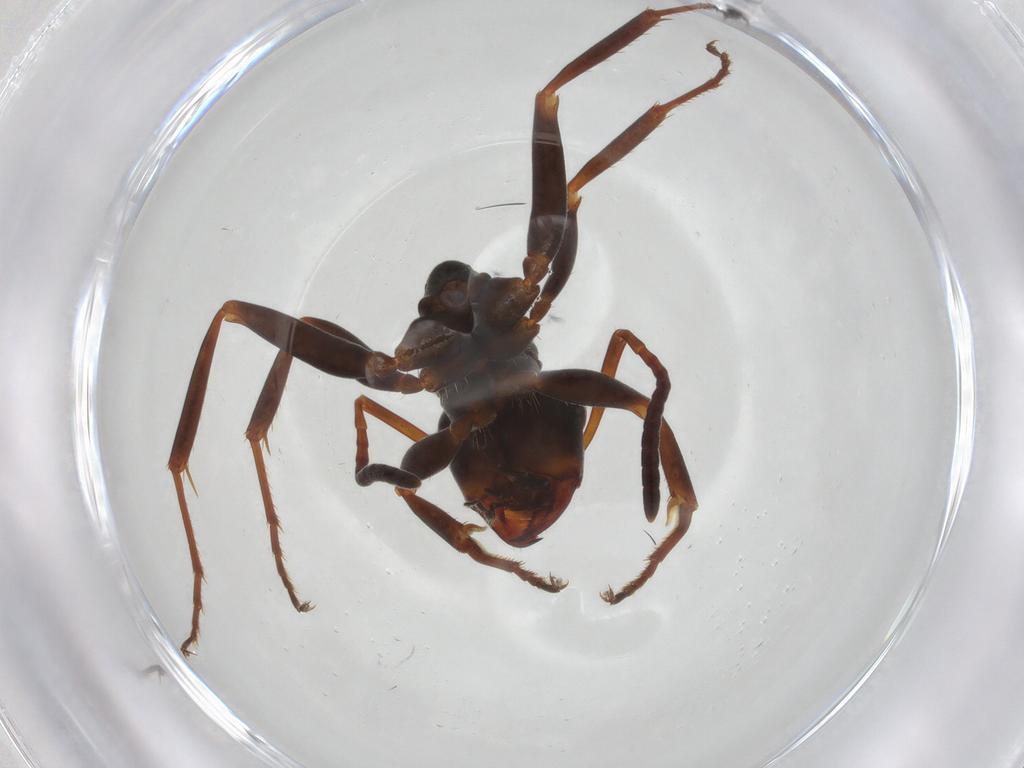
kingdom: Animalia
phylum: Arthropoda
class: Insecta
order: Hymenoptera
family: Formicidae
